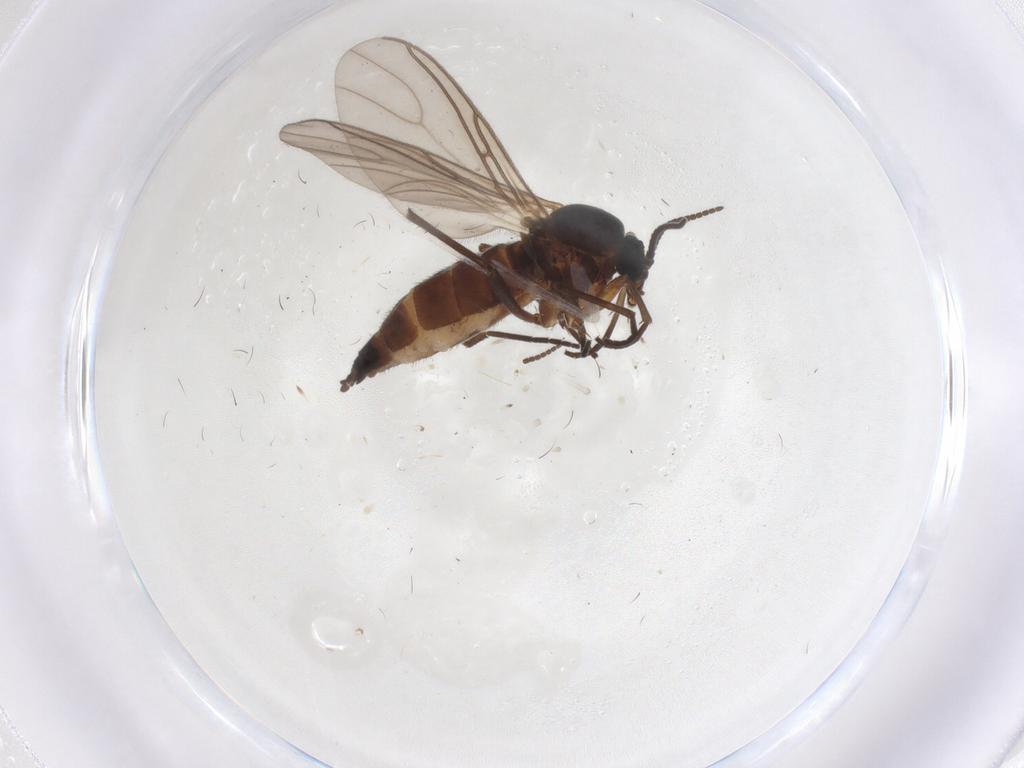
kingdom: Animalia
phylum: Arthropoda
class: Insecta
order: Diptera
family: Sciaridae
